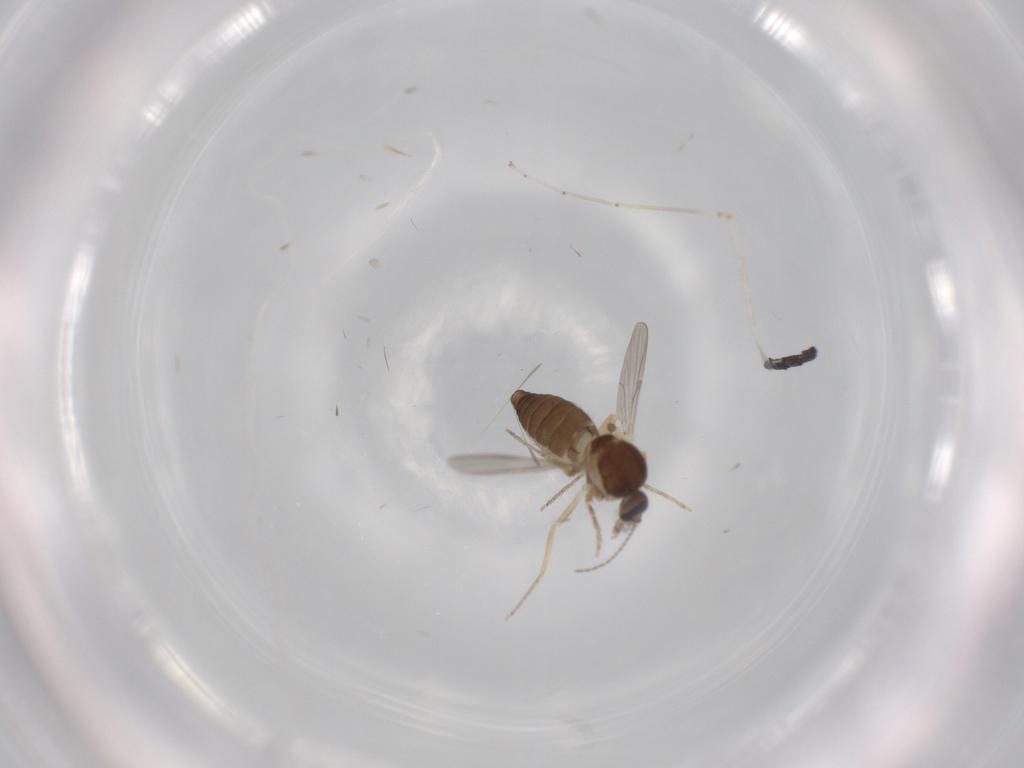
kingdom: Animalia
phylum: Arthropoda
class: Insecta
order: Diptera
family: Ceratopogonidae
